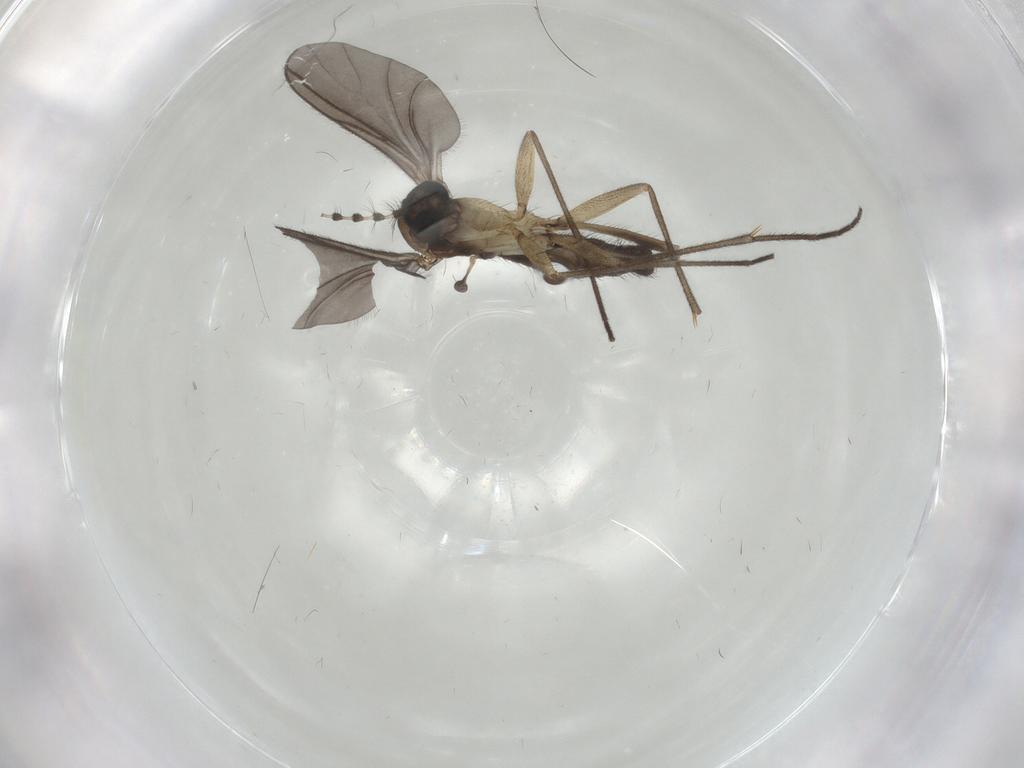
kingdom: Animalia
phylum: Arthropoda
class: Insecta
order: Diptera
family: Sciaridae
